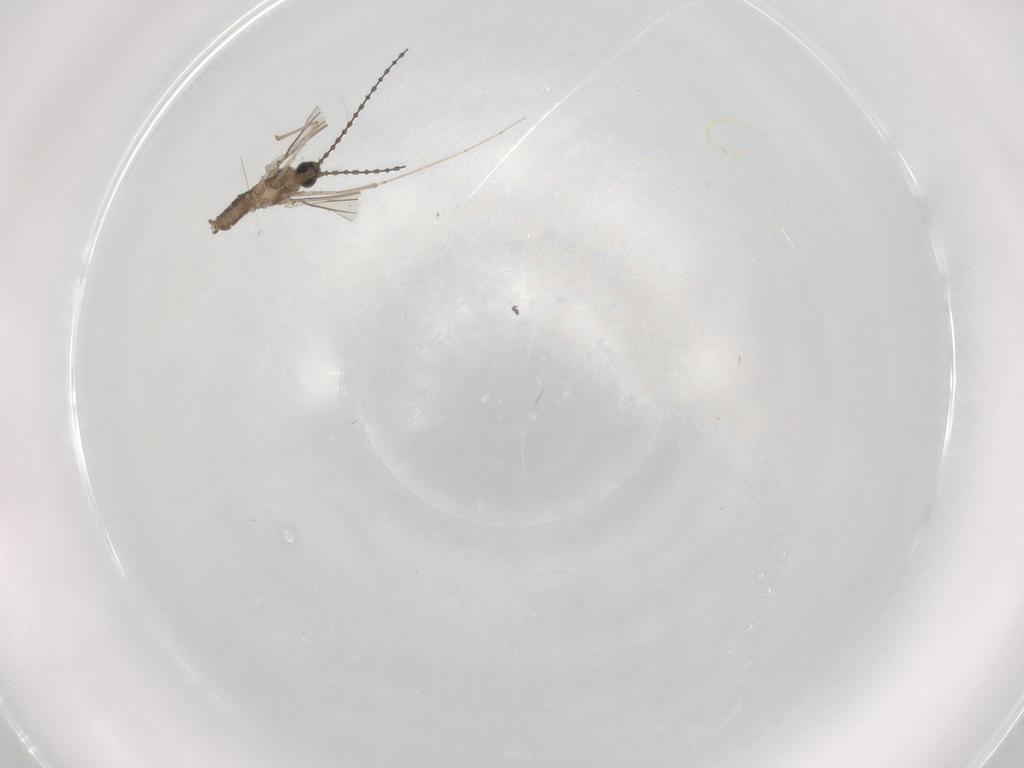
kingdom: Animalia
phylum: Arthropoda
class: Insecta
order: Diptera
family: Cecidomyiidae
